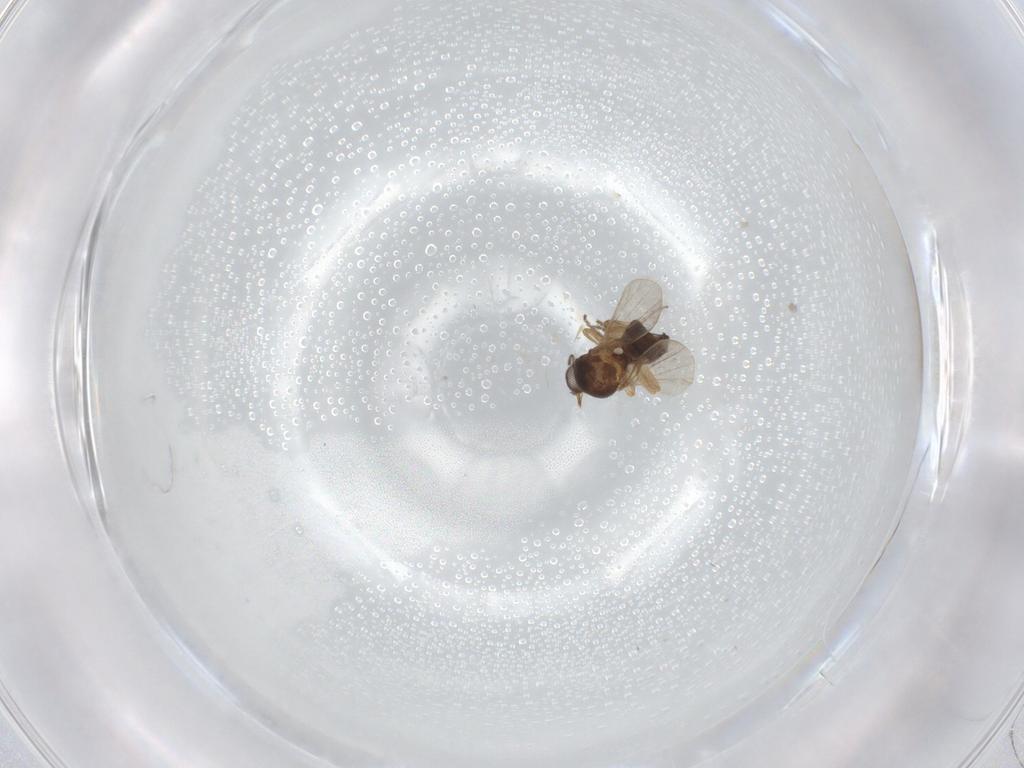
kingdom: Animalia
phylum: Arthropoda
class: Insecta
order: Diptera
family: Ceratopogonidae
